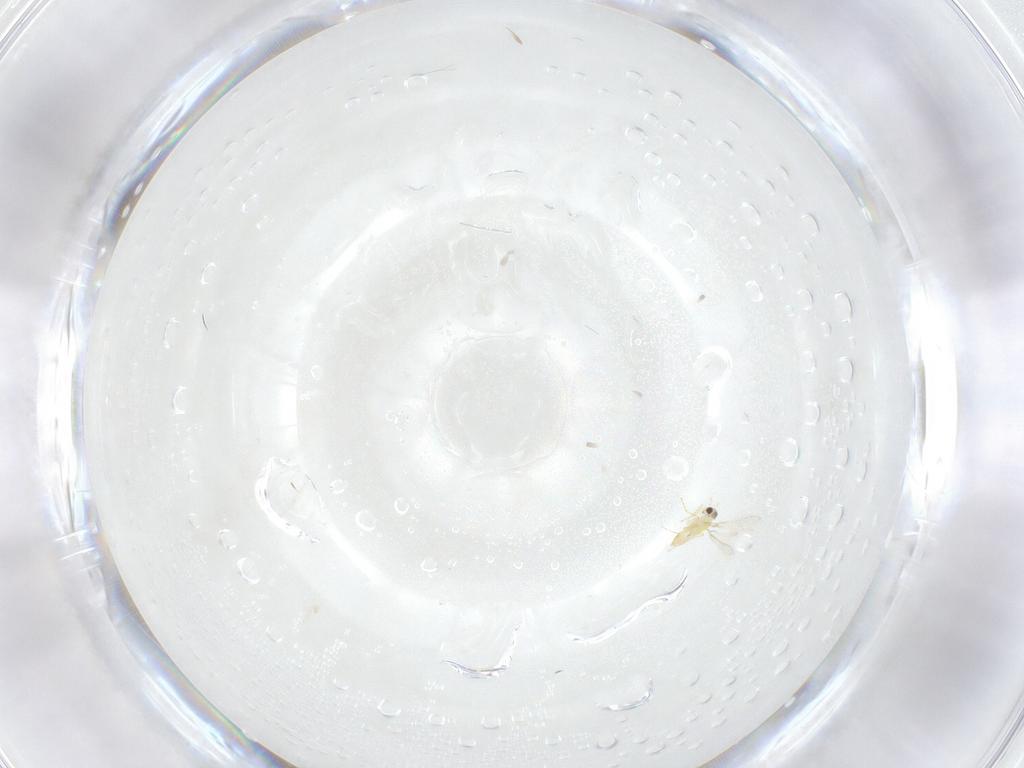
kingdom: Animalia
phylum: Arthropoda
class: Insecta
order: Hymenoptera
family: Mymaridae
